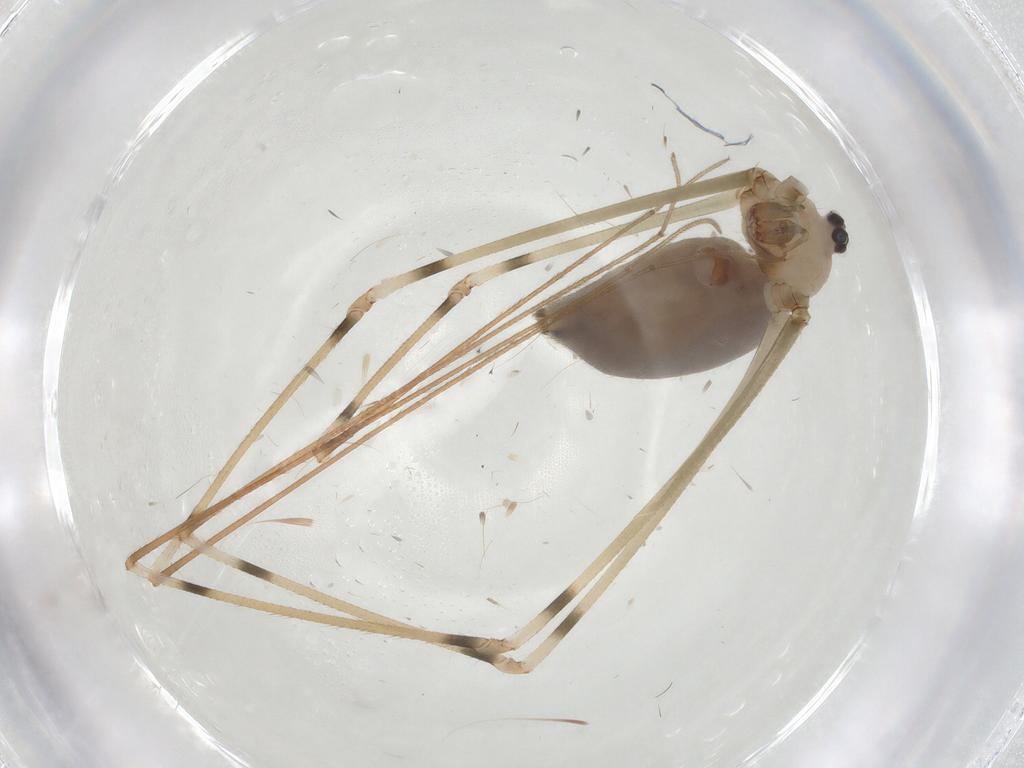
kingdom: Animalia
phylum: Arthropoda
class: Arachnida
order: Araneae
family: Pholcidae
